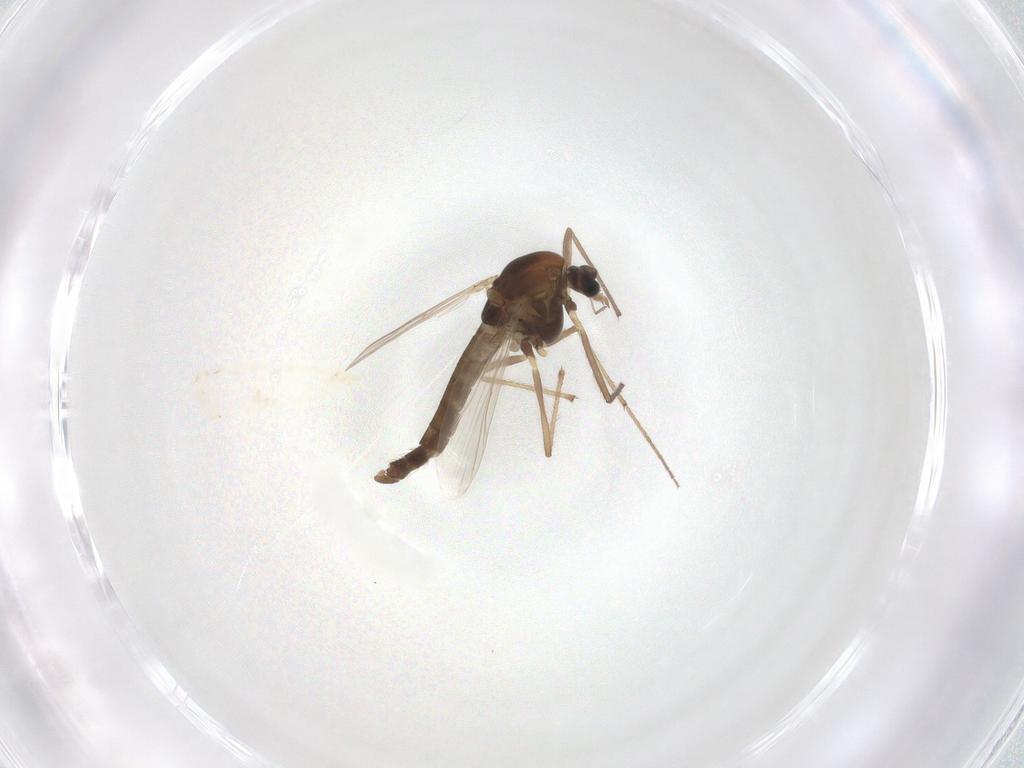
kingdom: Animalia
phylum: Arthropoda
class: Insecta
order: Diptera
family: Chironomidae
